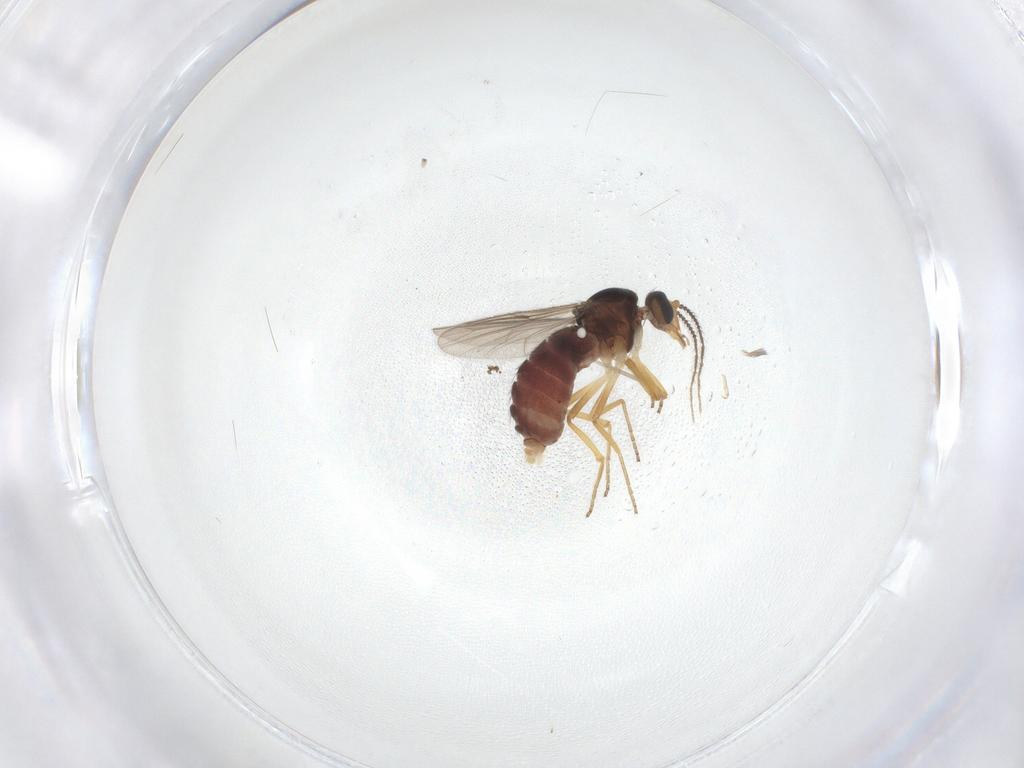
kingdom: Animalia
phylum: Arthropoda
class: Insecta
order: Diptera
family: Ceratopogonidae
